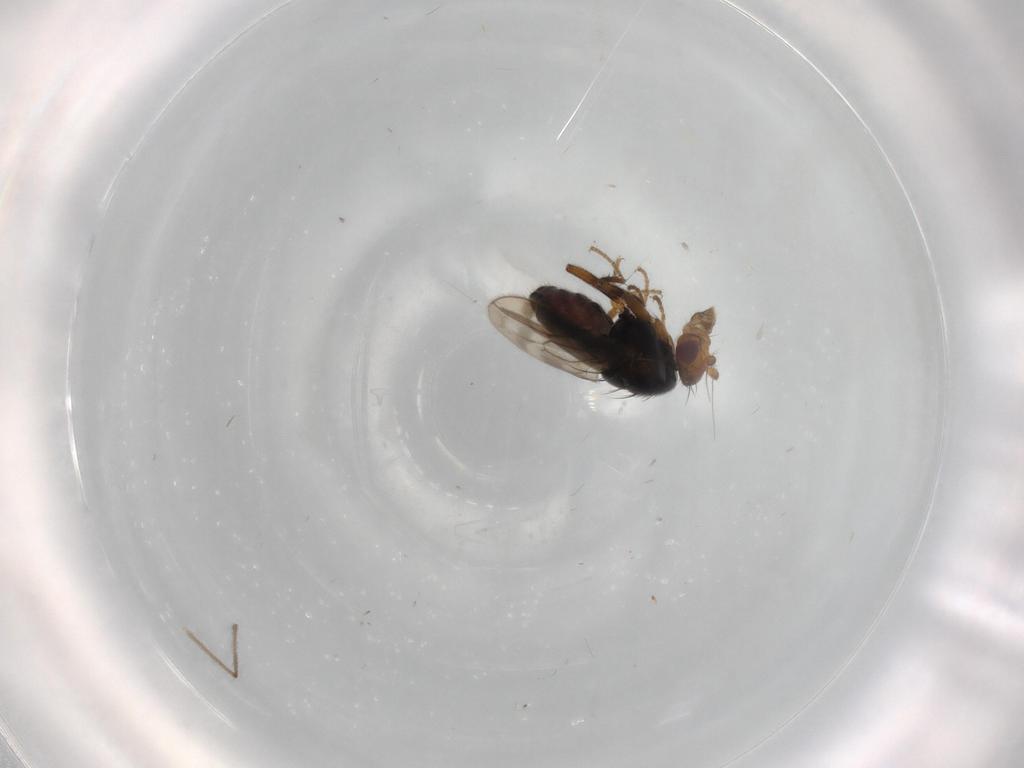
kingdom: Animalia
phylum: Arthropoda
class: Insecta
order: Diptera
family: Sphaeroceridae
